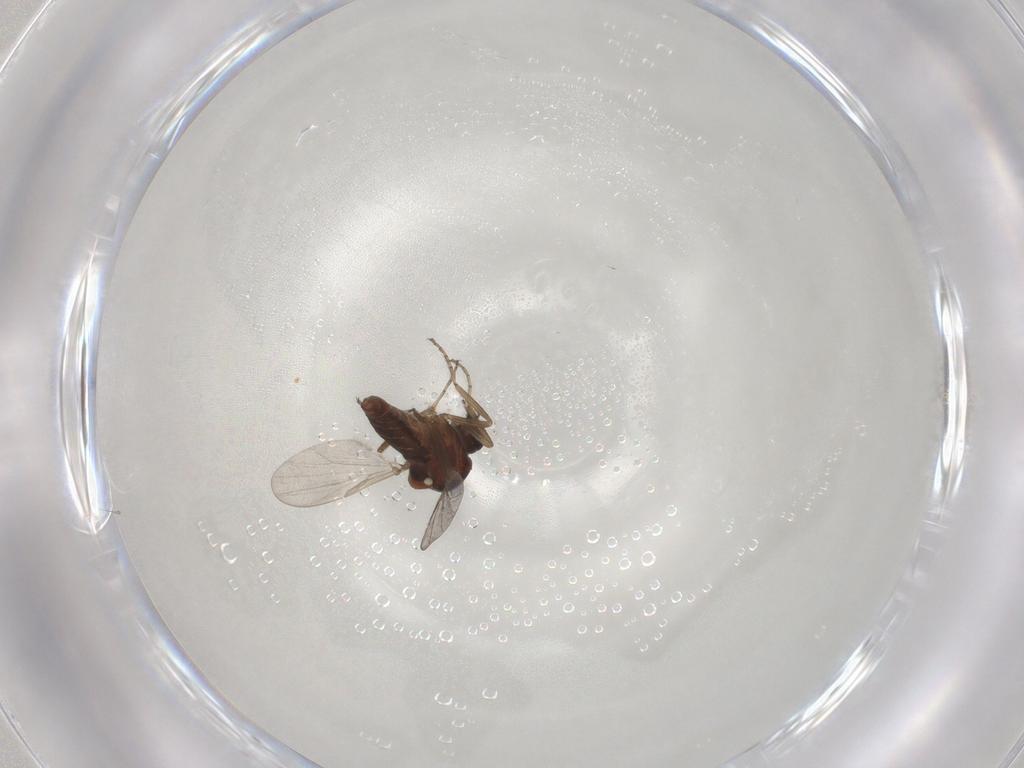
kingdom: Animalia
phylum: Arthropoda
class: Insecta
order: Diptera
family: Ceratopogonidae
